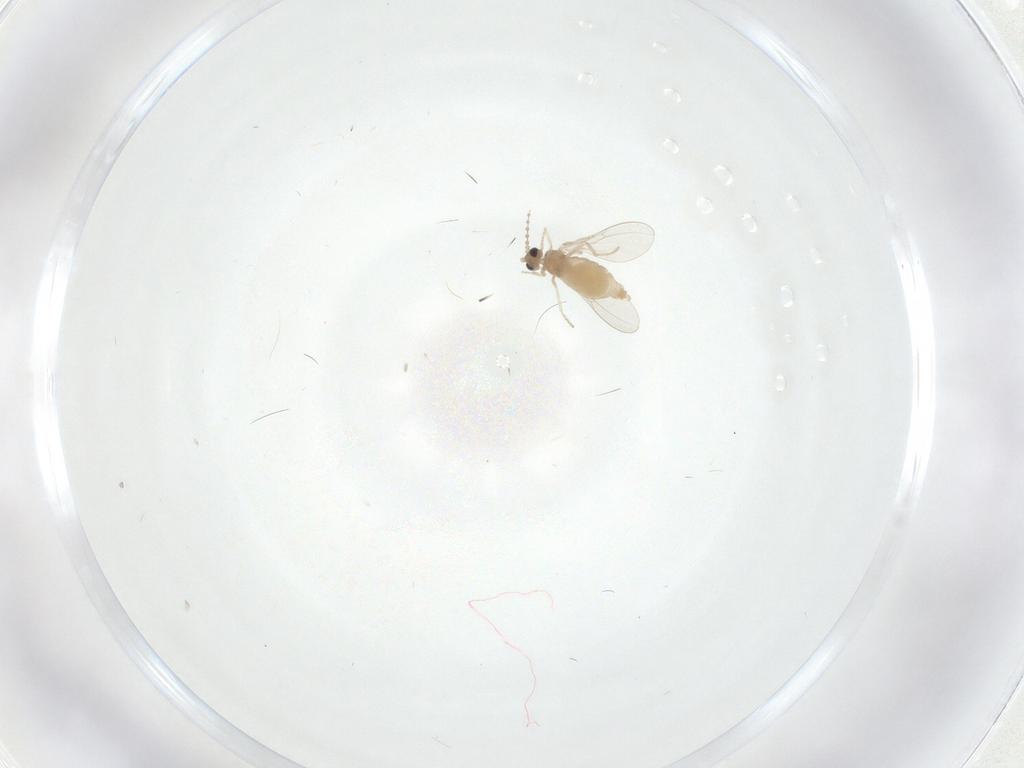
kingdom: Animalia
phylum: Arthropoda
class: Insecta
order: Diptera
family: Cecidomyiidae
